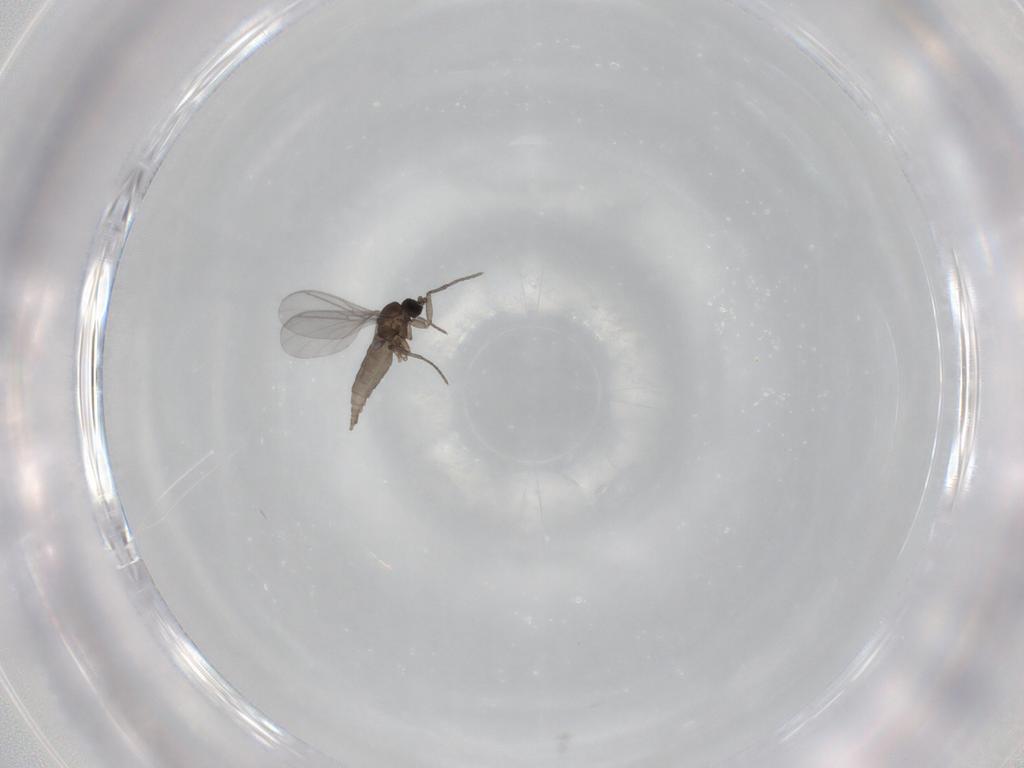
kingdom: Animalia
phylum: Arthropoda
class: Insecta
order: Diptera
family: Sciaridae
